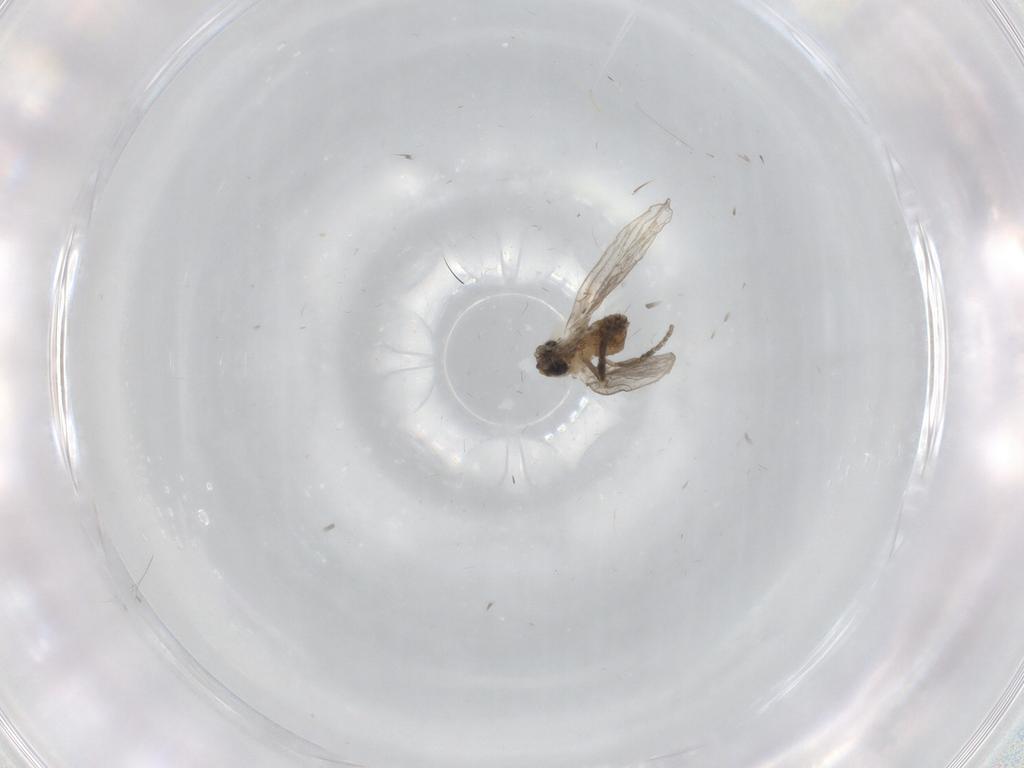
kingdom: Animalia
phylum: Arthropoda
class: Insecta
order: Diptera
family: Psychodidae
